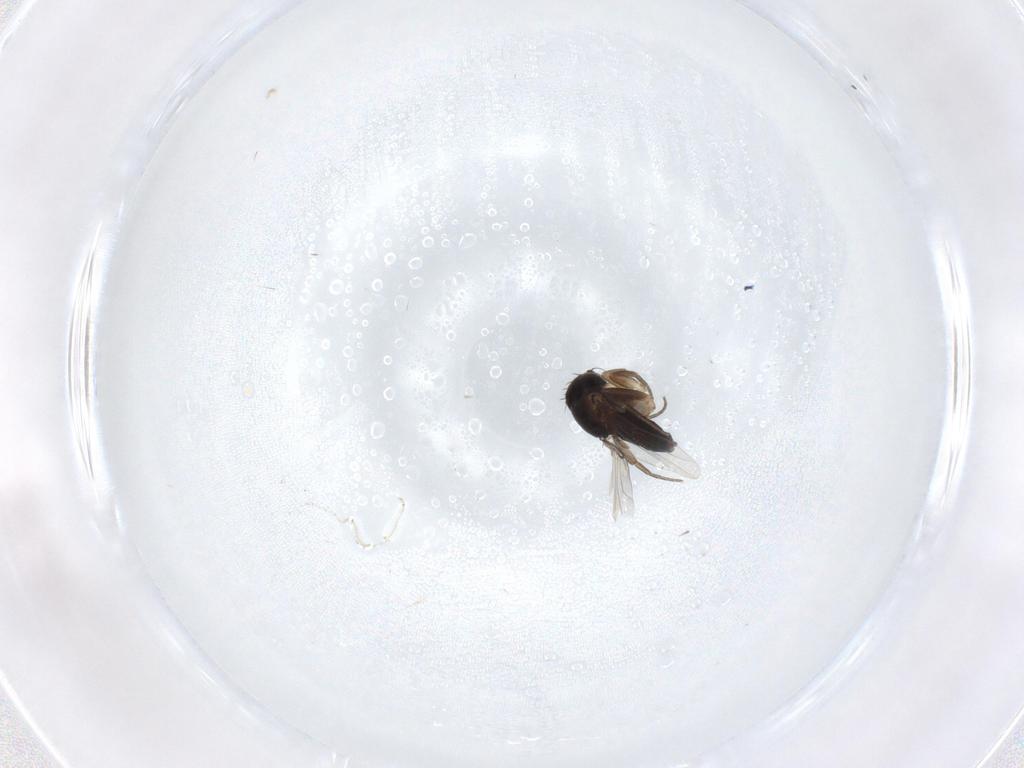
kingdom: Animalia
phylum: Arthropoda
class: Insecta
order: Diptera
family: Phoridae
